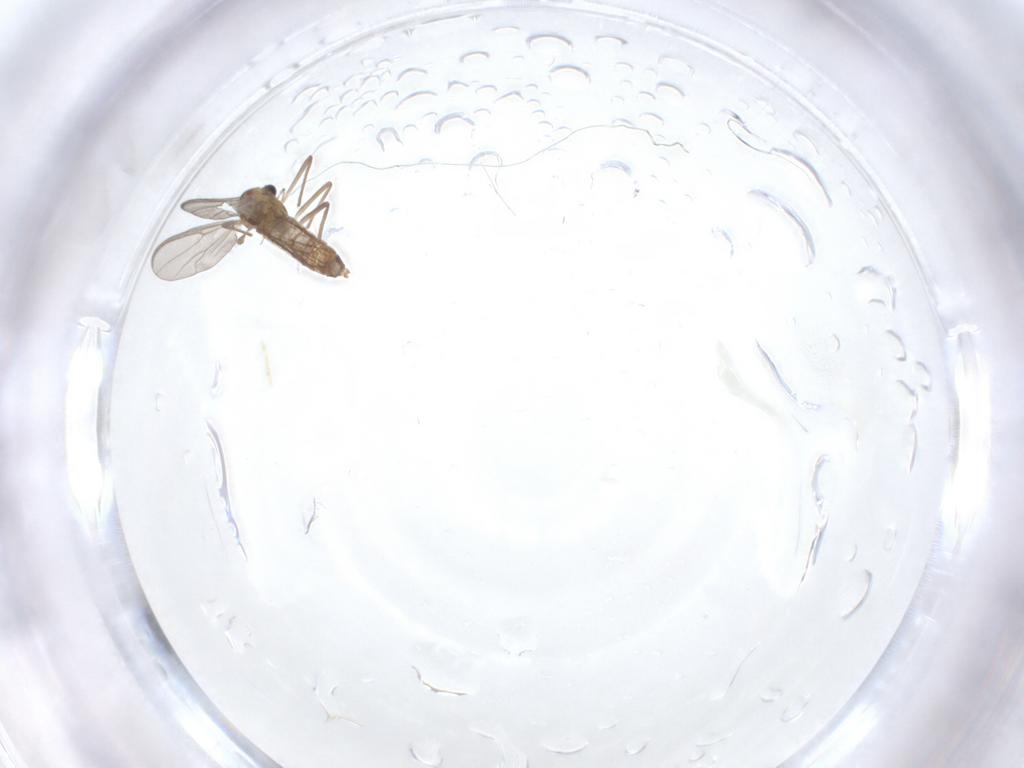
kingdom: Animalia
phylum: Arthropoda
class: Insecta
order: Diptera
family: Chironomidae
